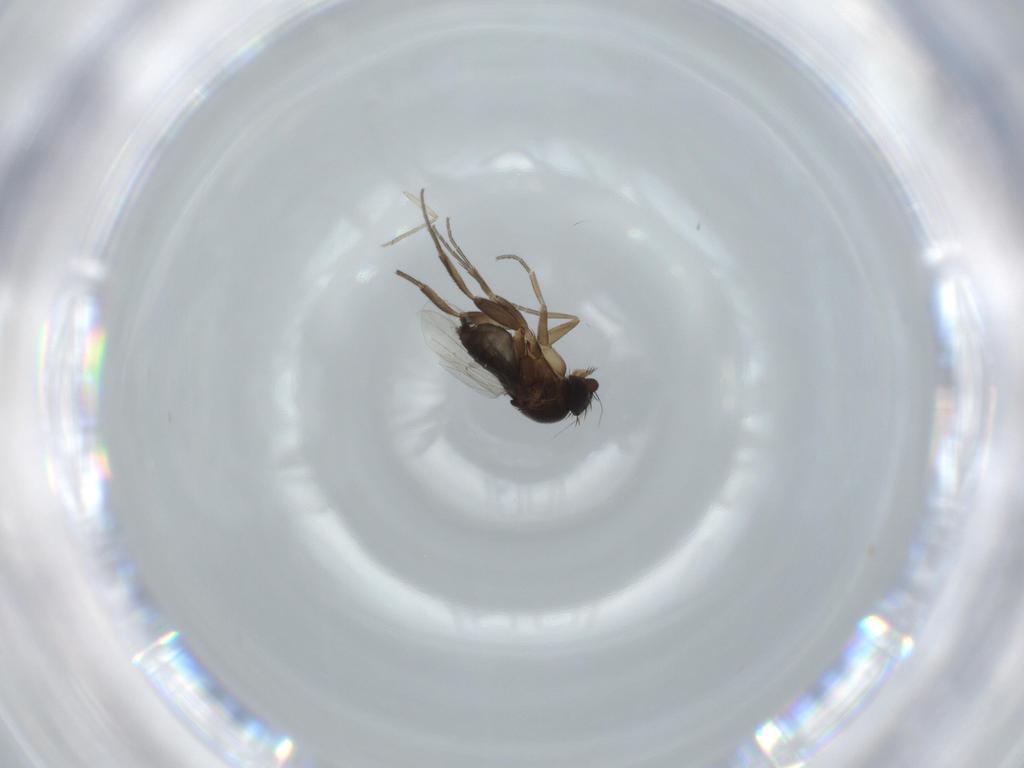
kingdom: Animalia
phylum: Arthropoda
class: Insecta
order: Diptera
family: Phoridae
